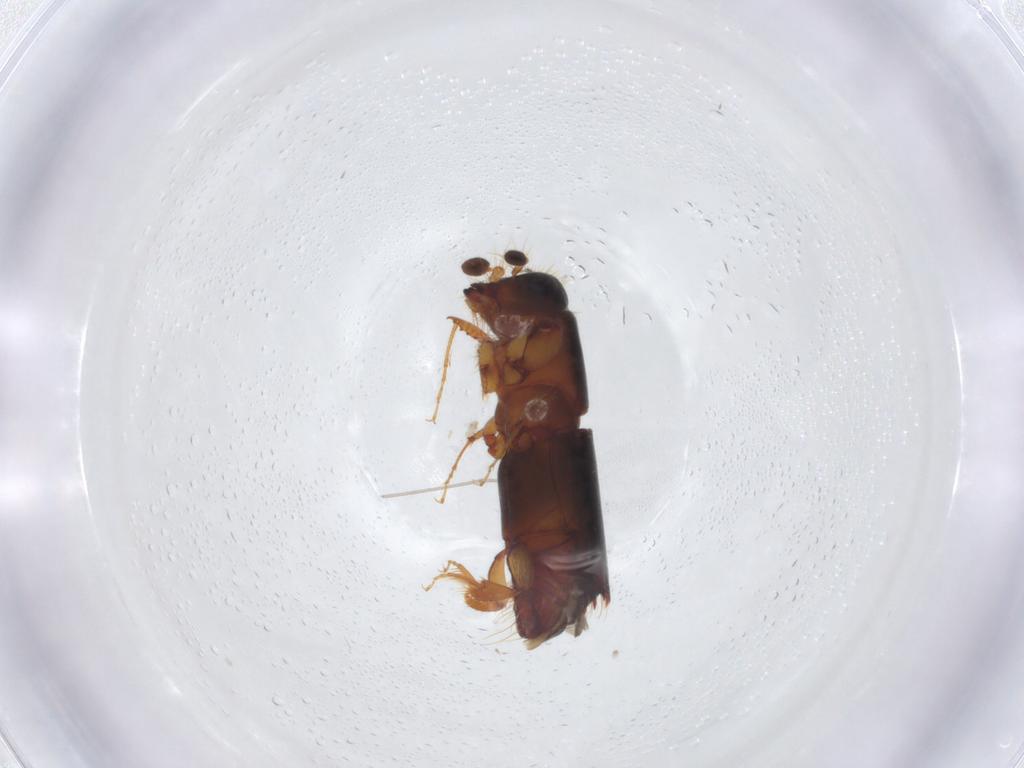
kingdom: Animalia
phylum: Arthropoda
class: Insecta
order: Coleoptera
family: Curculionidae
